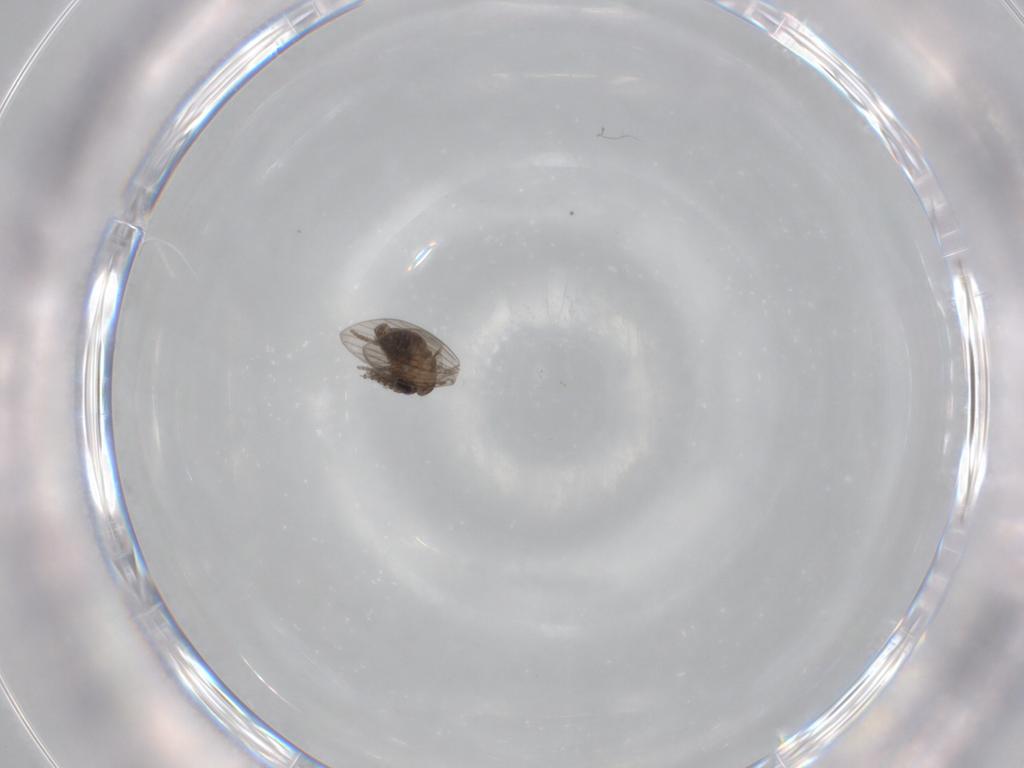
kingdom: Animalia
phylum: Arthropoda
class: Insecta
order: Diptera
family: Psychodidae
